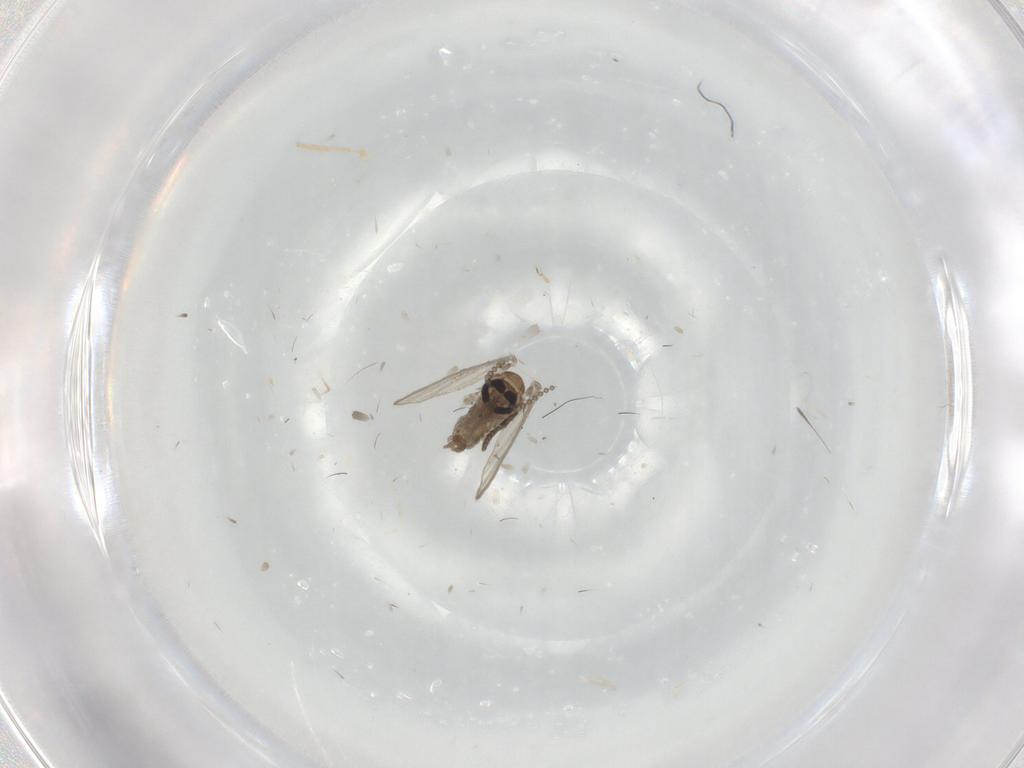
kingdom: Animalia
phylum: Arthropoda
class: Insecta
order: Diptera
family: Psychodidae
